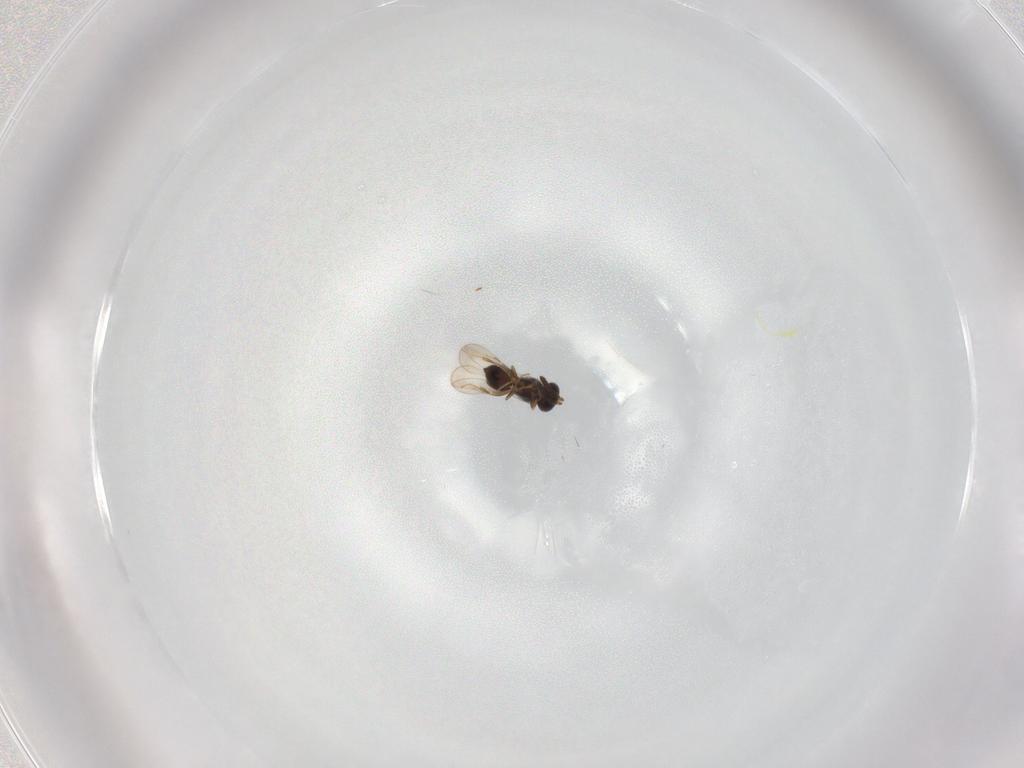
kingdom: Animalia
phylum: Arthropoda
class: Insecta
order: Hymenoptera
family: Ceraphronidae
